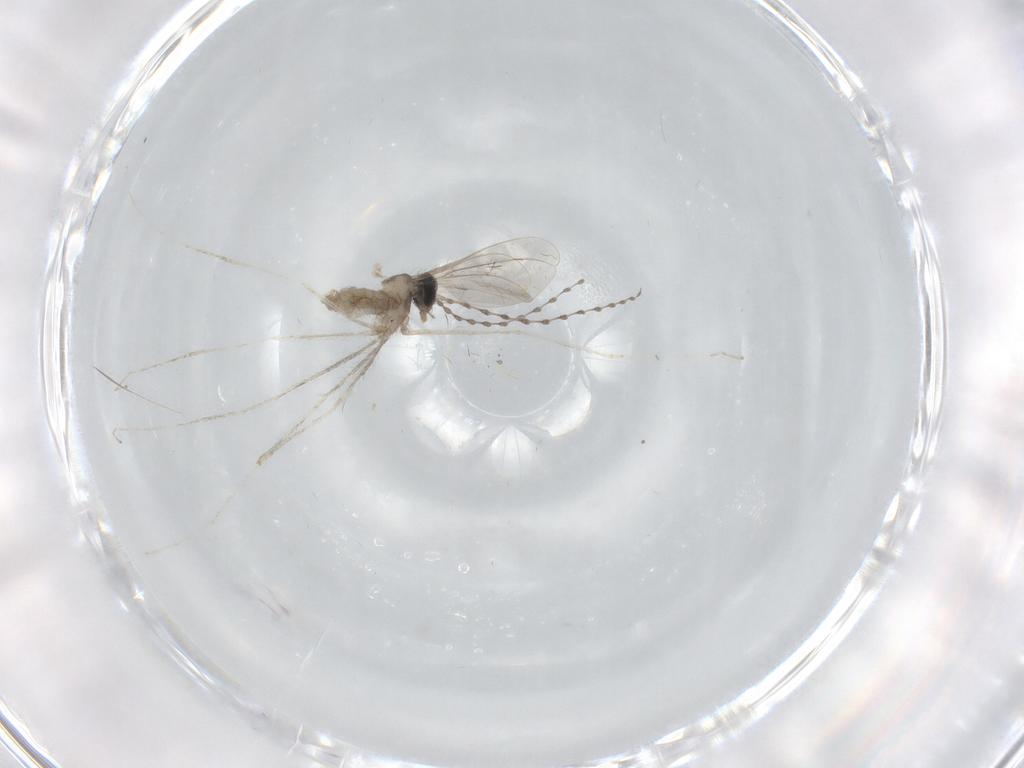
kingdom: Animalia
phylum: Arthropoda
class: Insecta
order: Diptera
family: Cecidomyiidae
